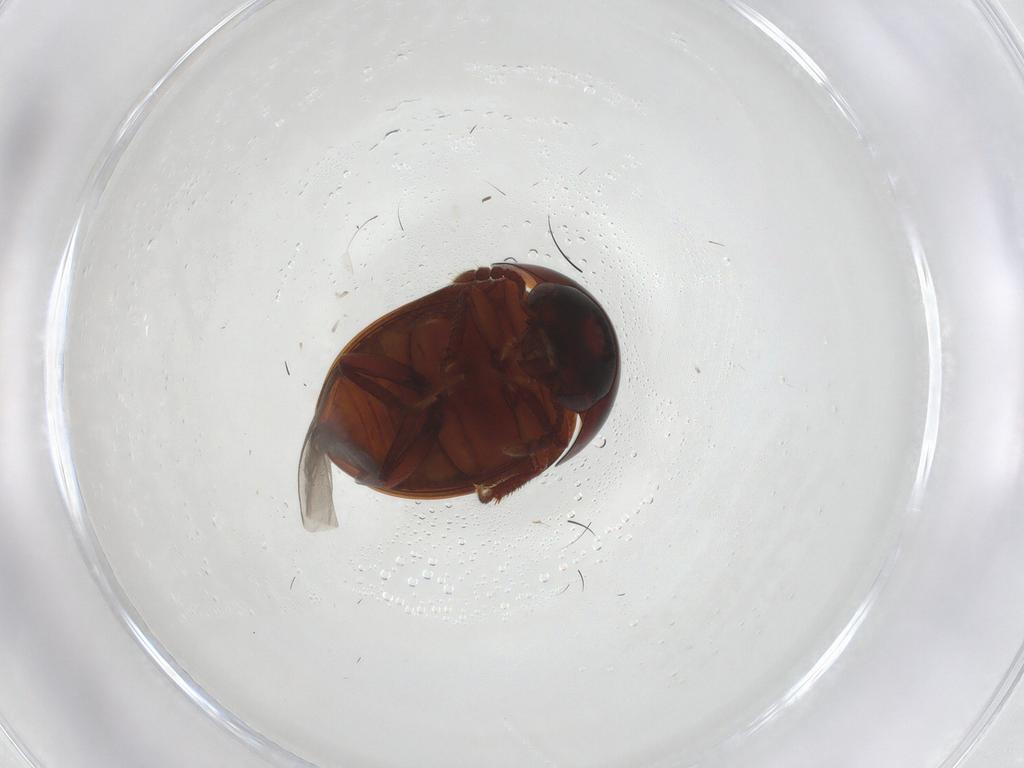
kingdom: Animalia
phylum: Arthropoda
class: Insecta
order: Coleoptera
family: Leiodidae
